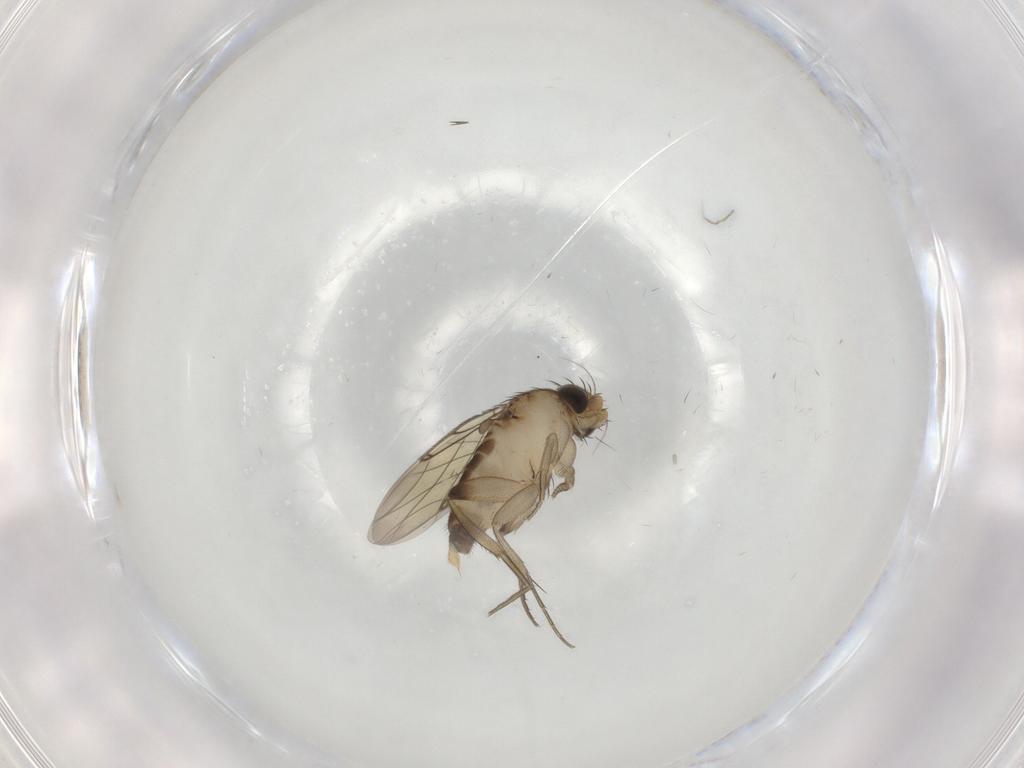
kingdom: Animalia
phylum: Arthropoda
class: Insecta
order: Diptera
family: Phoridae
